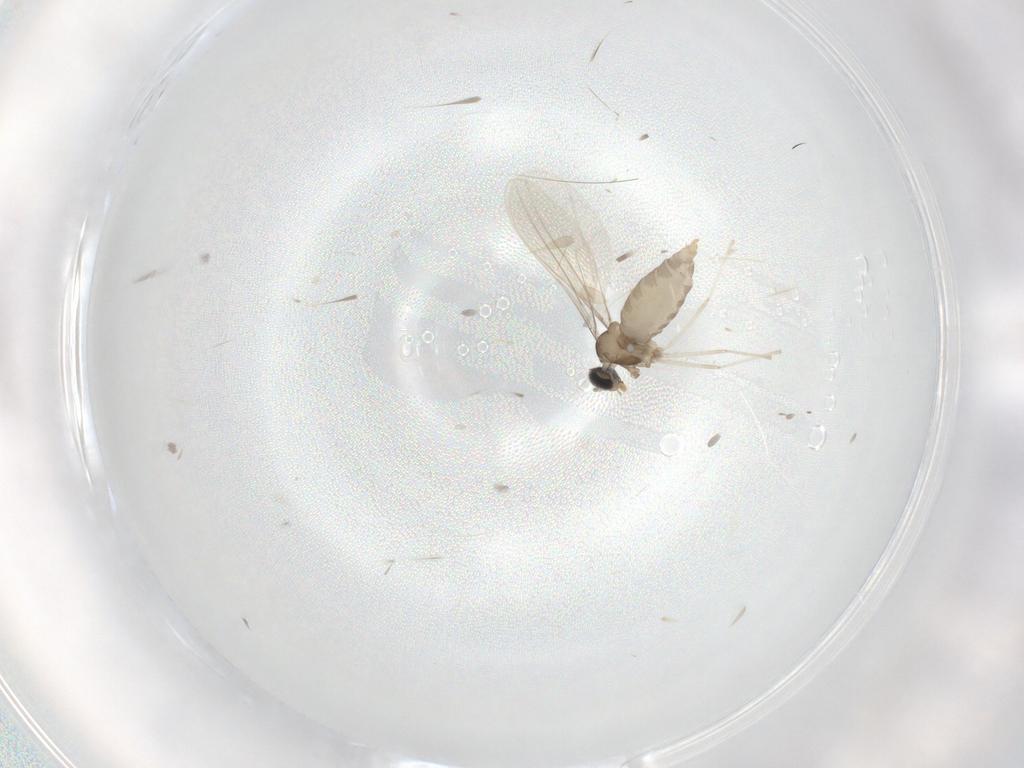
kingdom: Animalia
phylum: Arthropoda
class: Insecta
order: Diptera
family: Cecidomyiidae
